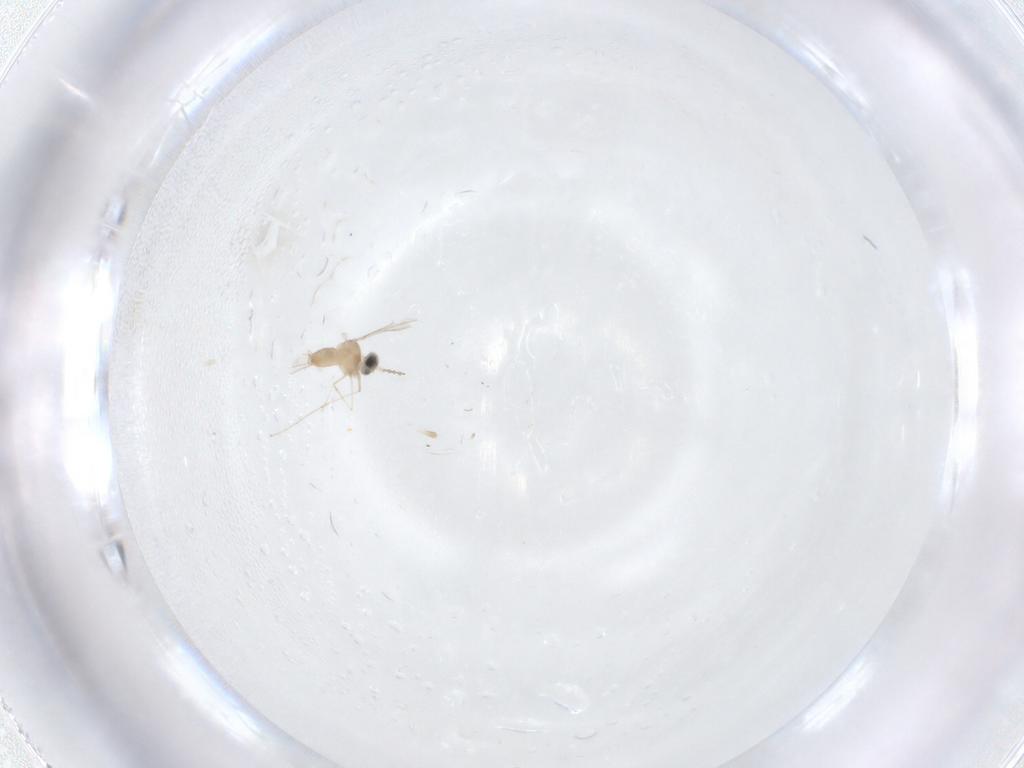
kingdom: Animalia
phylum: Arthropoda
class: Insecta
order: Diptera
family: Cecidomyiidae
